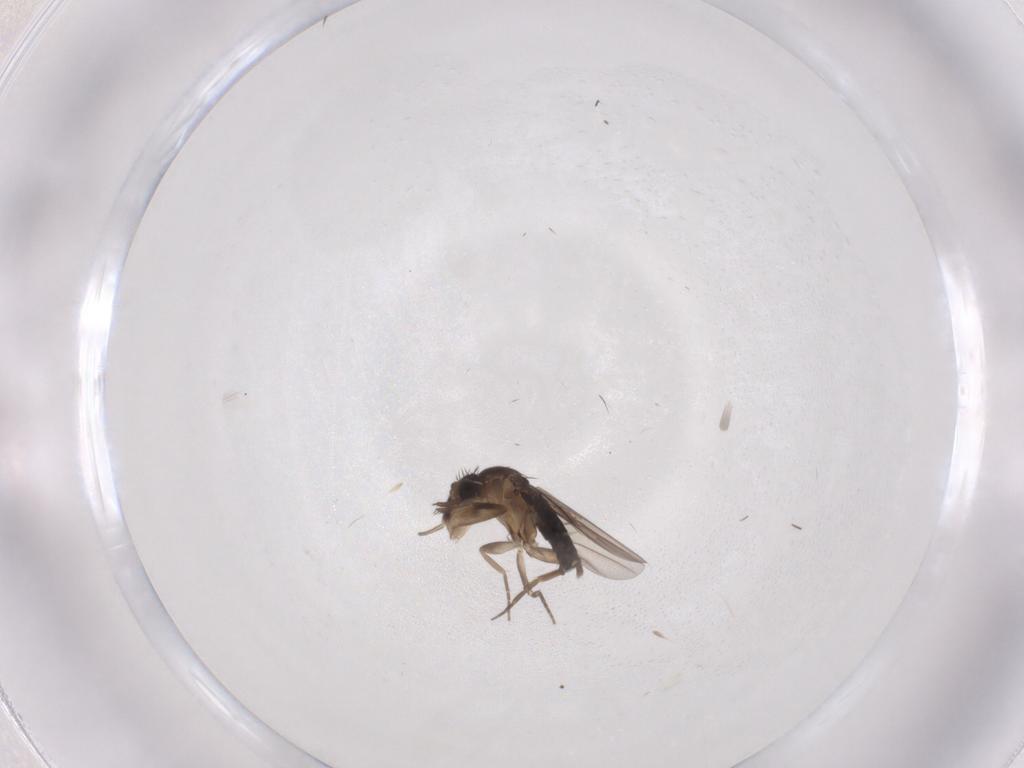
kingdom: Animalia
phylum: Arthropoda
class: Insecta
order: Diptera
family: Phoridae
